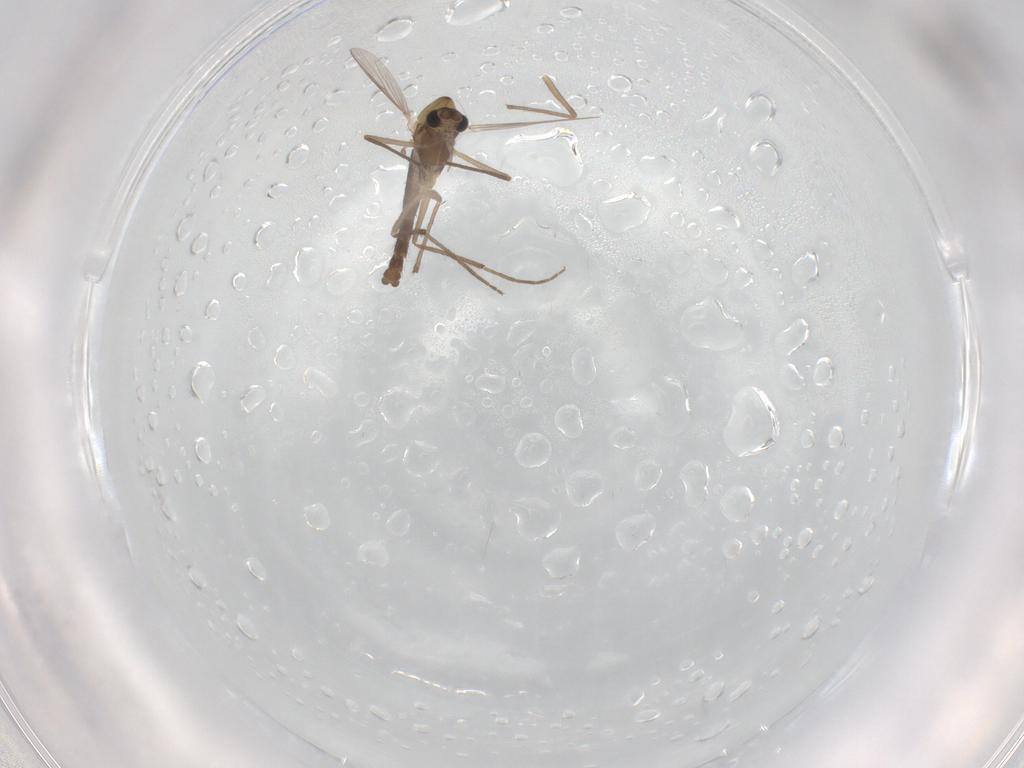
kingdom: Animalia
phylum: Arthropoda
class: Insecta
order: Diptera
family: Chironomidae
